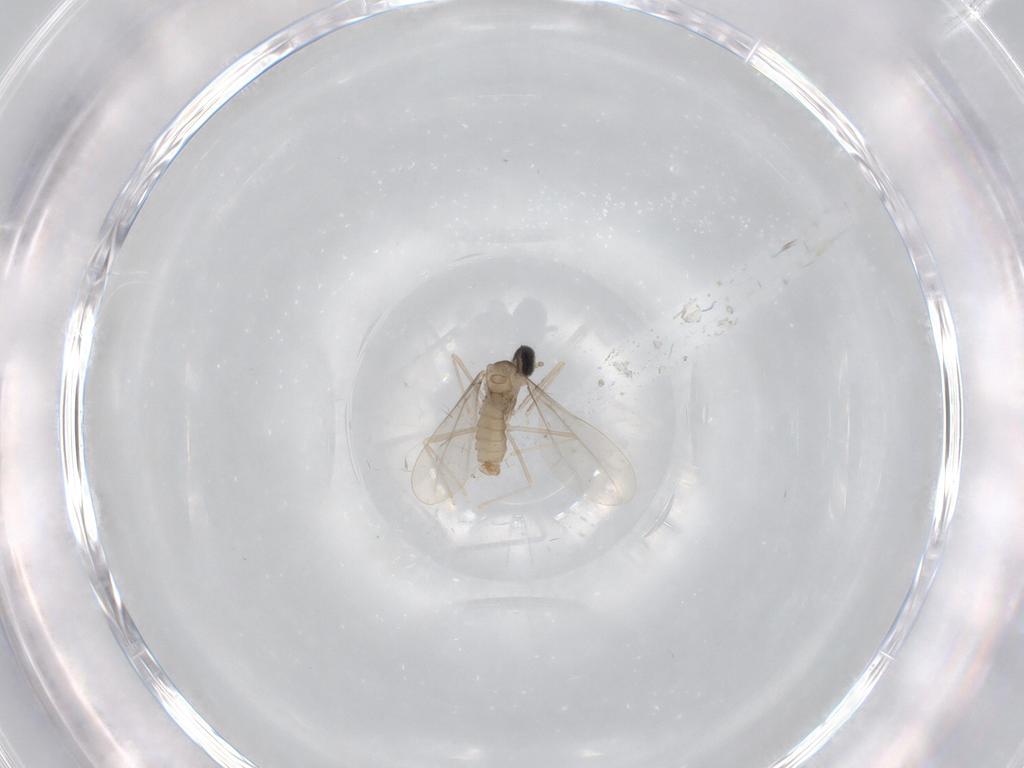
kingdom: Animalia
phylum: Arthropoda
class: Insecta
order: Diptera
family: Cecidomyiidae
